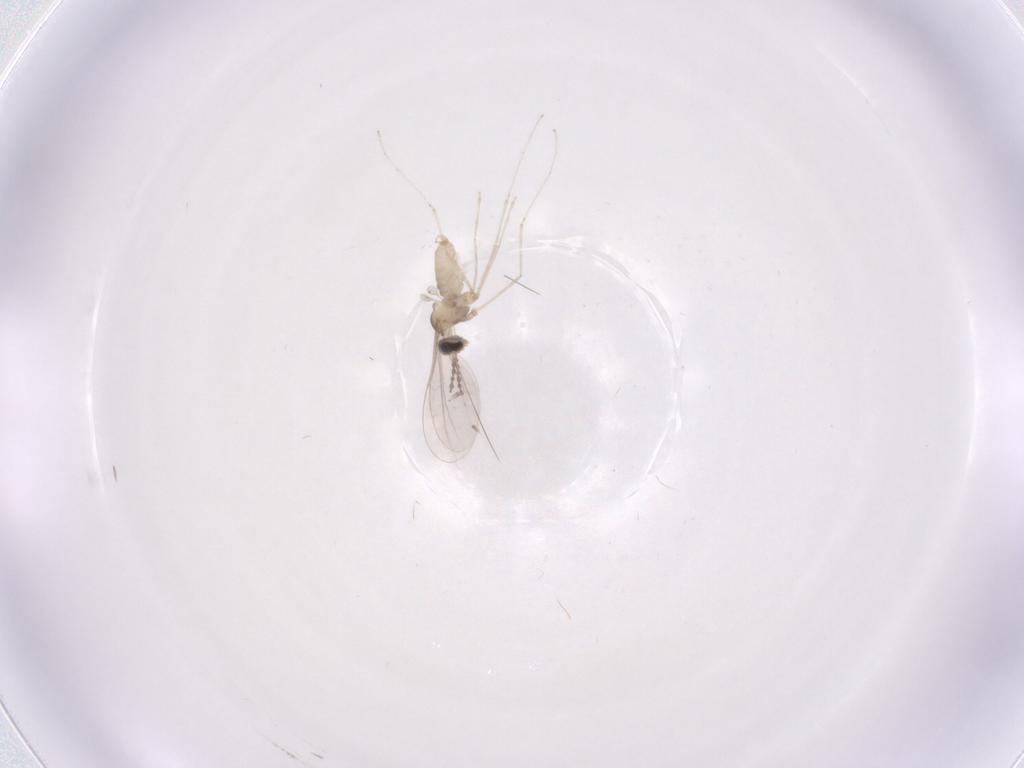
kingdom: Animalia
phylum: Arthropoda
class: Insecta
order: Diptera
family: Cecidomyiidae
